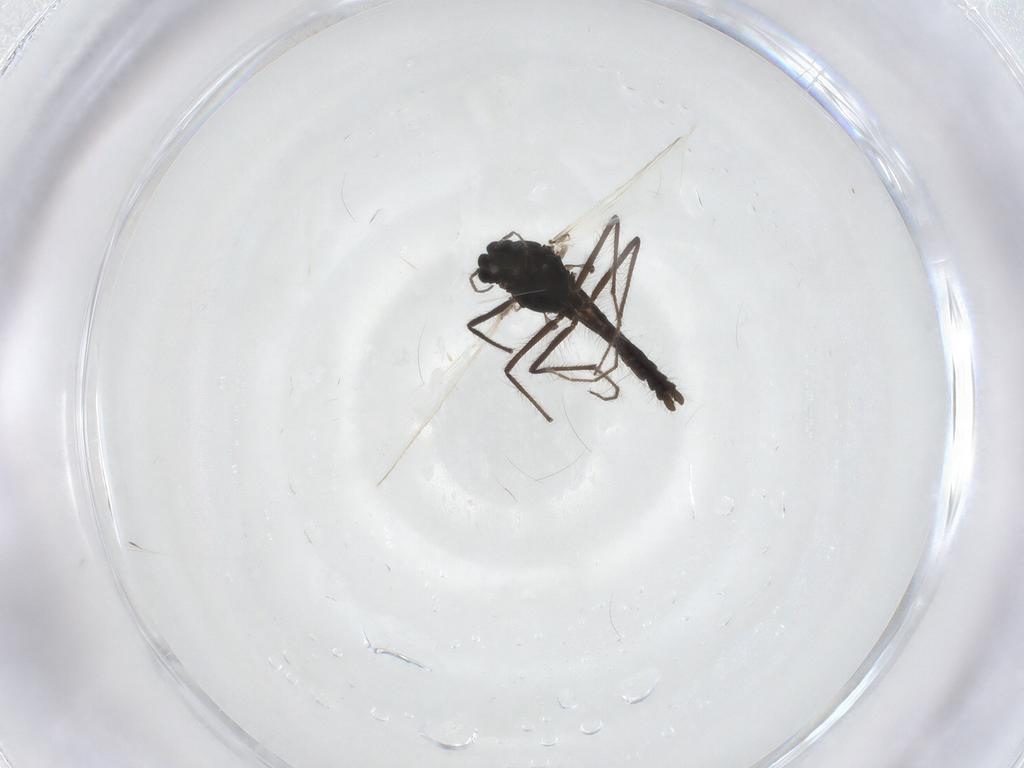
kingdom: Animalia
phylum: Arthropoda
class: Insecta
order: Diptera
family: Chironomidae
